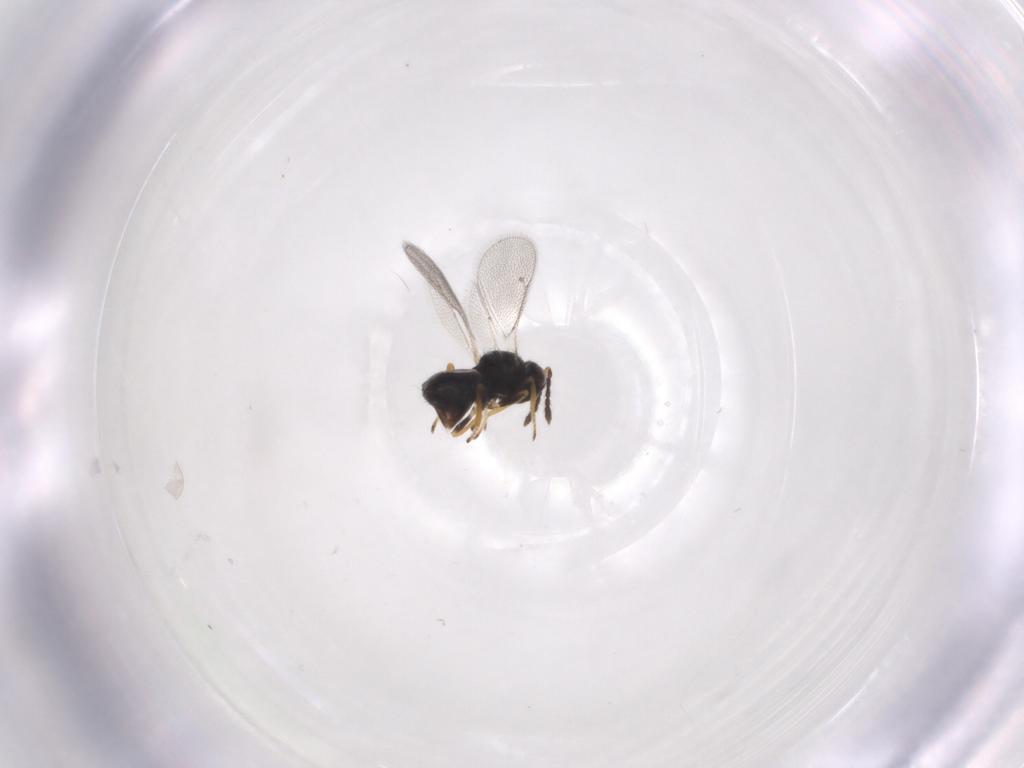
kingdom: Animalia
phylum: Arthropoda
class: Insecta
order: Hymenoptera
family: Eulophidae
